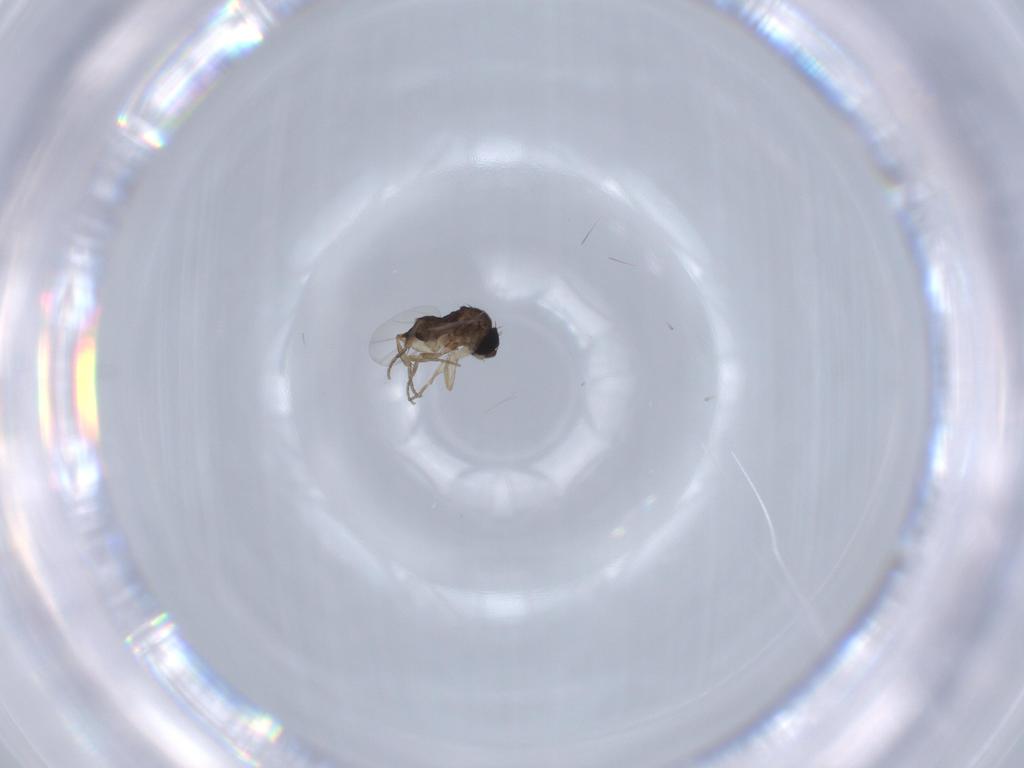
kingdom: Animalia
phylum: Arthropoda
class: Insecta
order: Diptera
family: Phoridae
